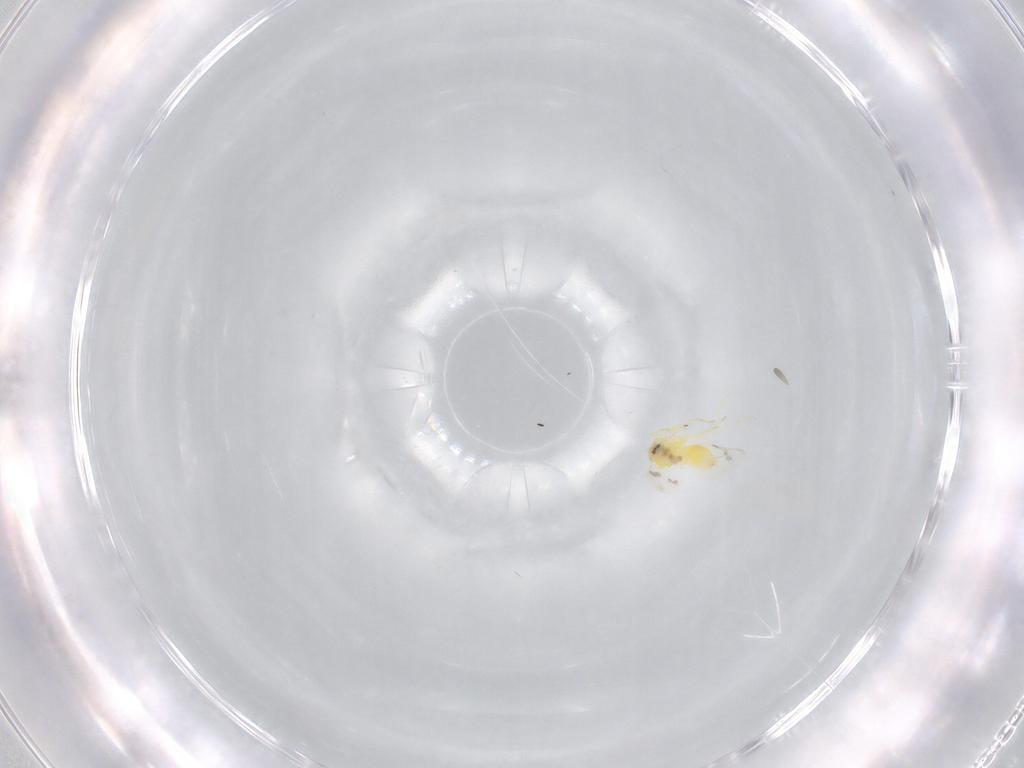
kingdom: Animalia
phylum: Arthropoda
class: Insecta
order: Hemiptera
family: Aleyrodidae
